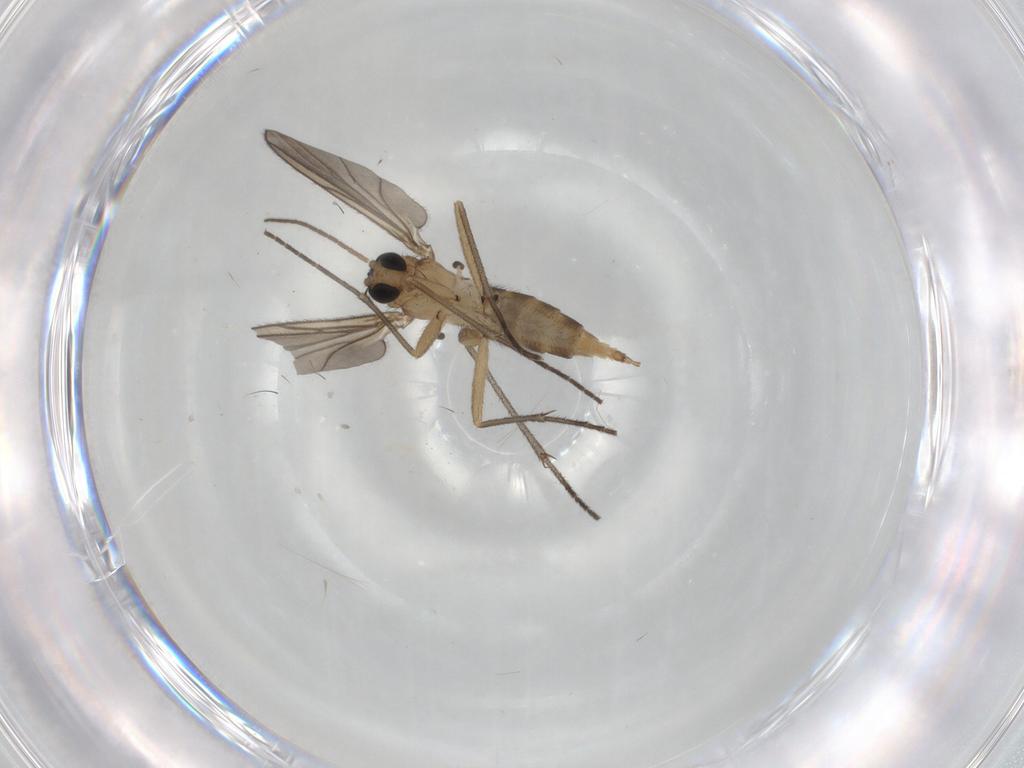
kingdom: Animalia
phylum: Arthropoda
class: Insecta
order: Diptera
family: Sciaridae
